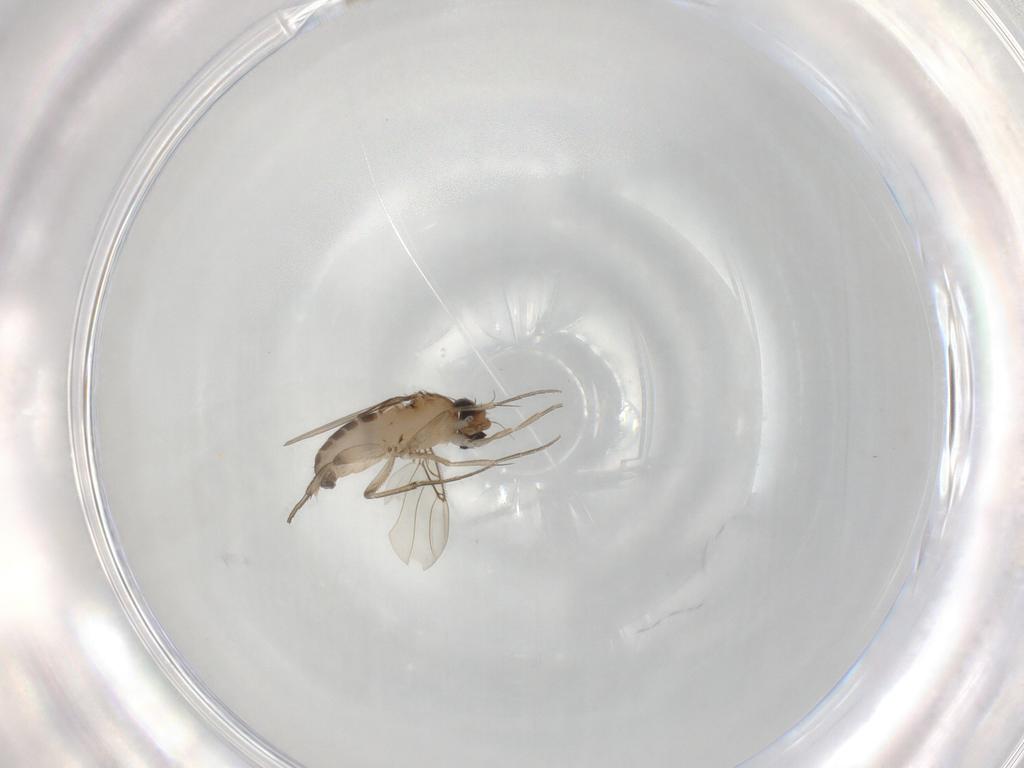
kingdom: Animalia
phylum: Arthropoda
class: Insecta
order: Diptera
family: Phoridae
